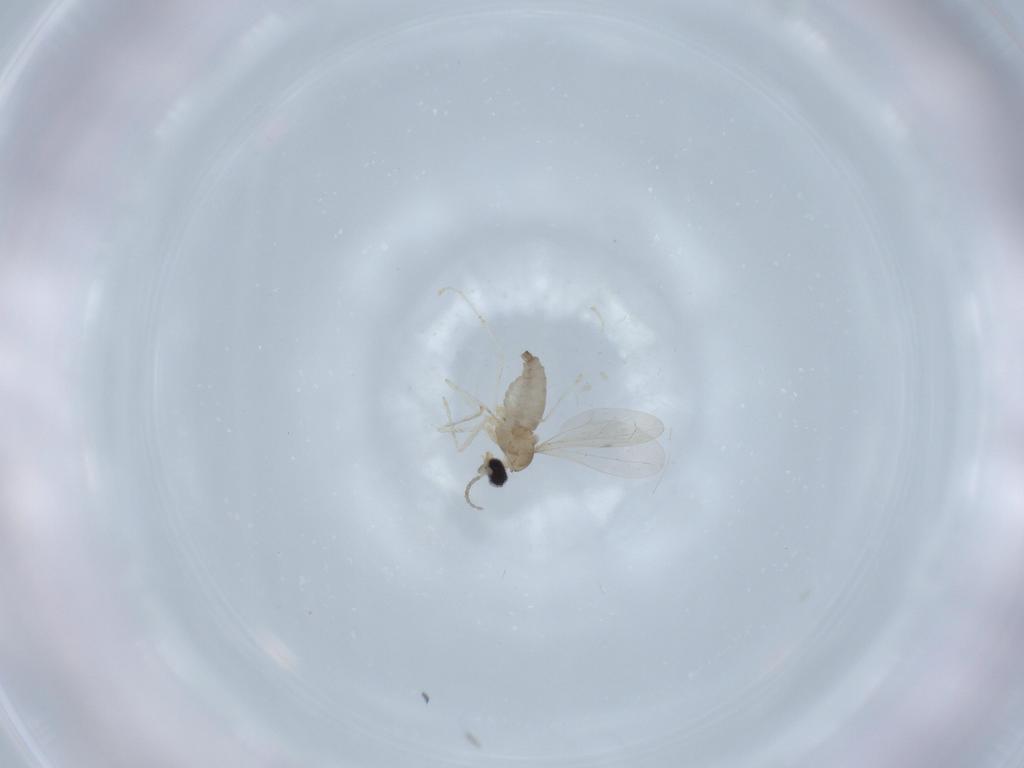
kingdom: Animalia
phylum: Arthropoda
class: Insecta
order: Diptera
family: Cecidomyiidae
